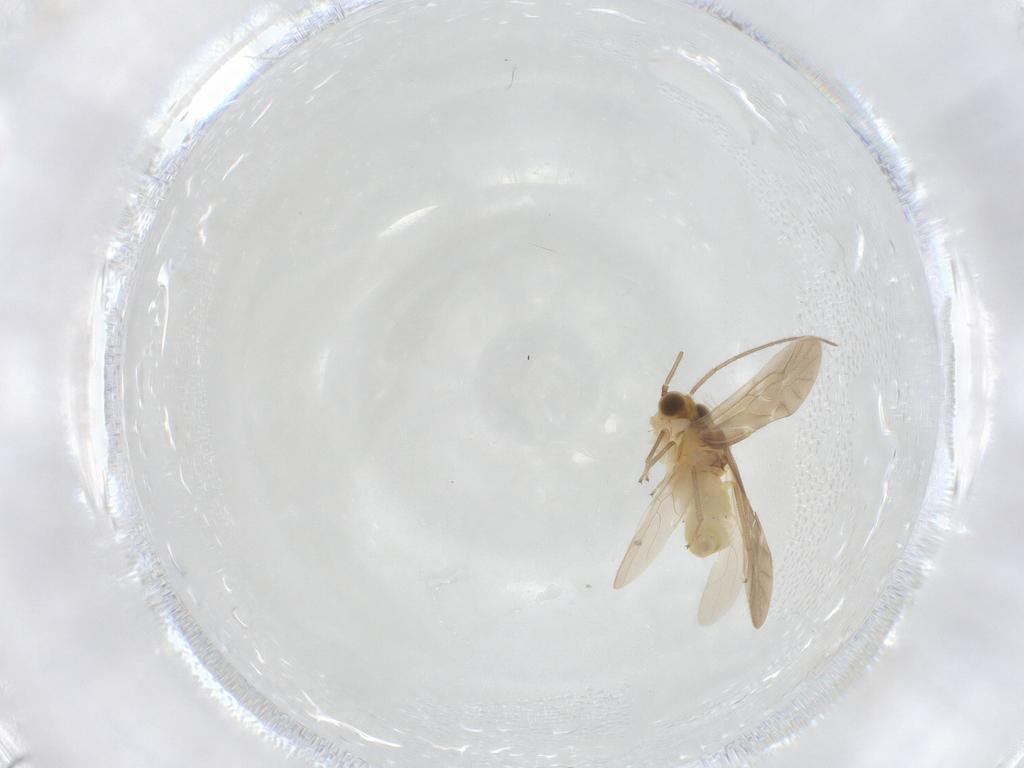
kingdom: Animalia
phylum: Arthropoda
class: Insecta
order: Psocodea
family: Caeciliusidae
